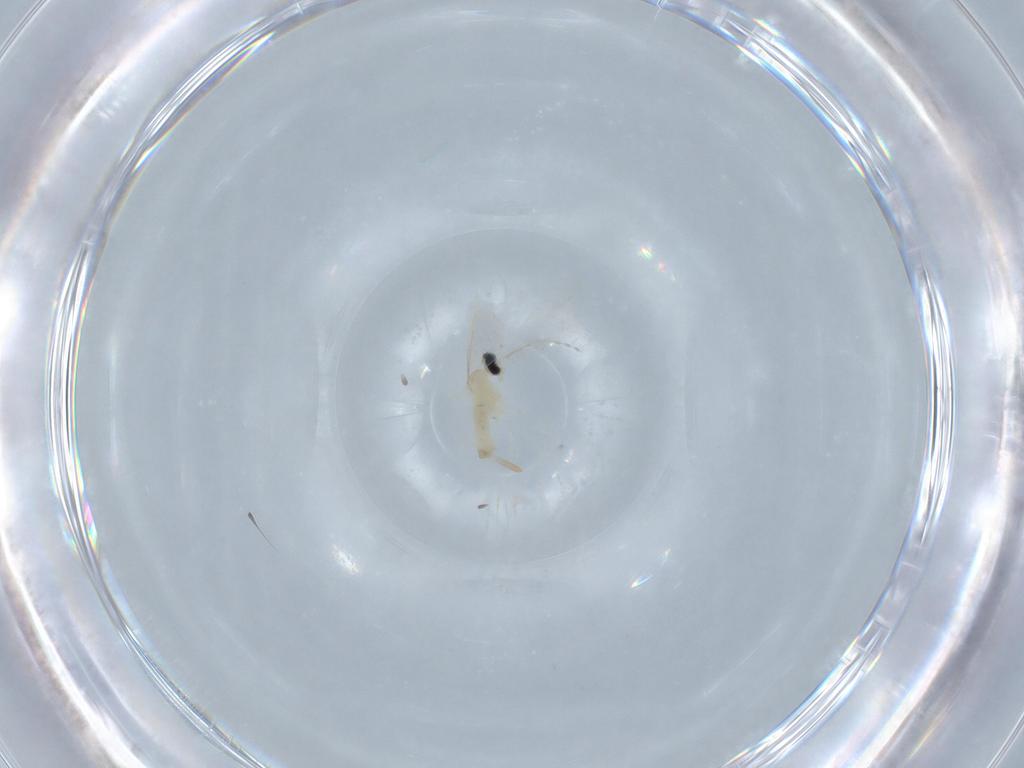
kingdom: Animalia
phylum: Arthropoda
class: Insecta
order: Diptera
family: Cecidomyiidae
